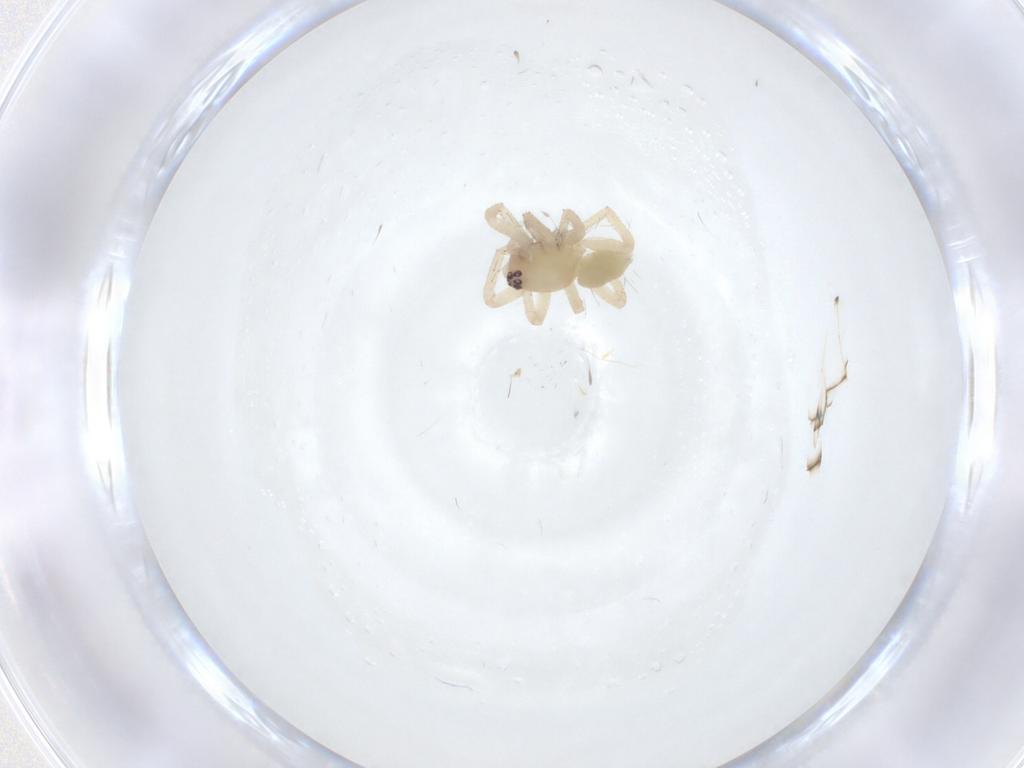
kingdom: Animalia
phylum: Arthropoda
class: Arachnida
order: Araneae
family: Anyphaenidae
